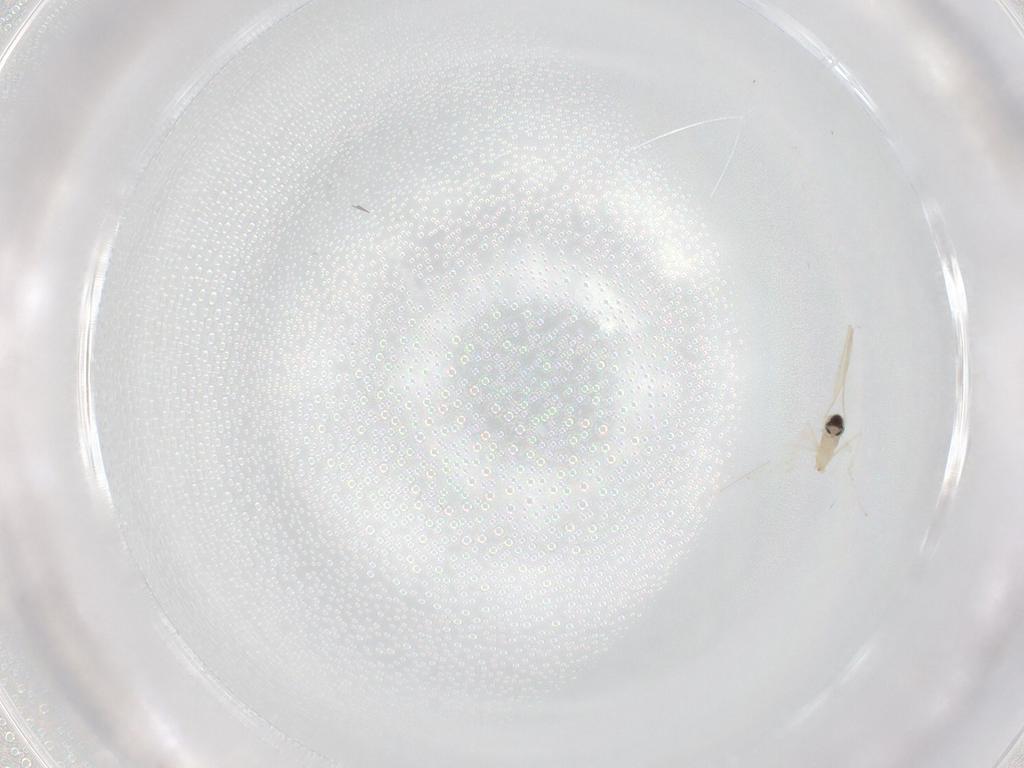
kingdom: Animalia
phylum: Arthropoda
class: Insecta
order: Diptera
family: Cecidomyiidae
